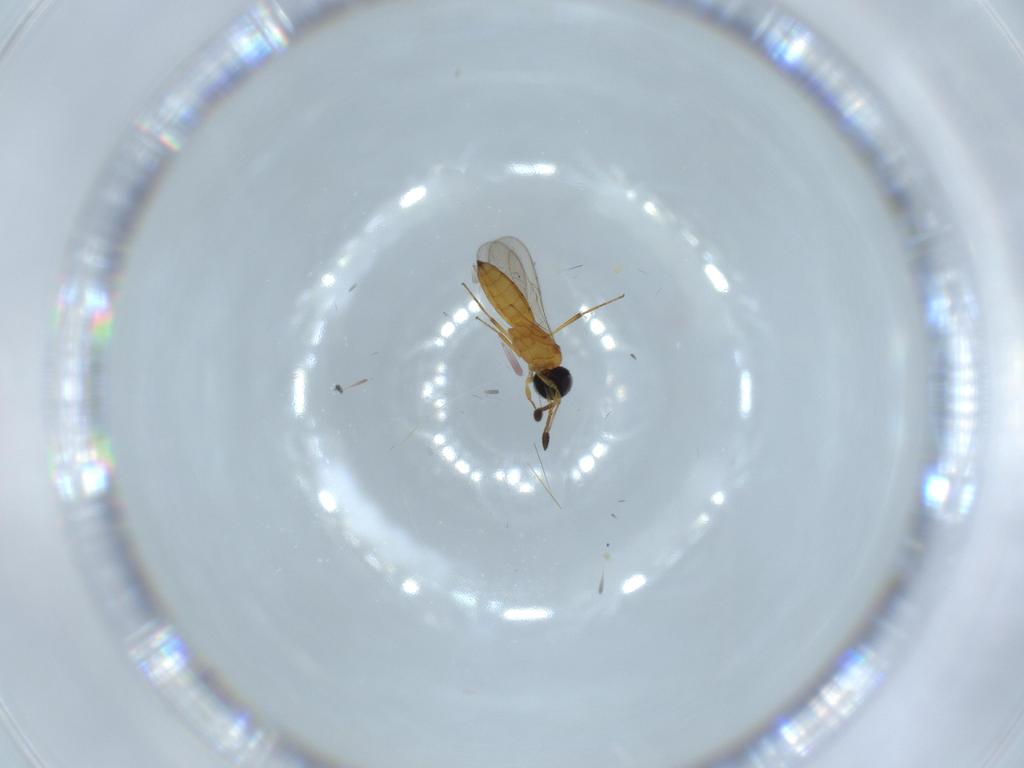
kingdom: Animalia
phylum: Arthropoda
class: Insecta
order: Hymenoptera
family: Scelionidae
